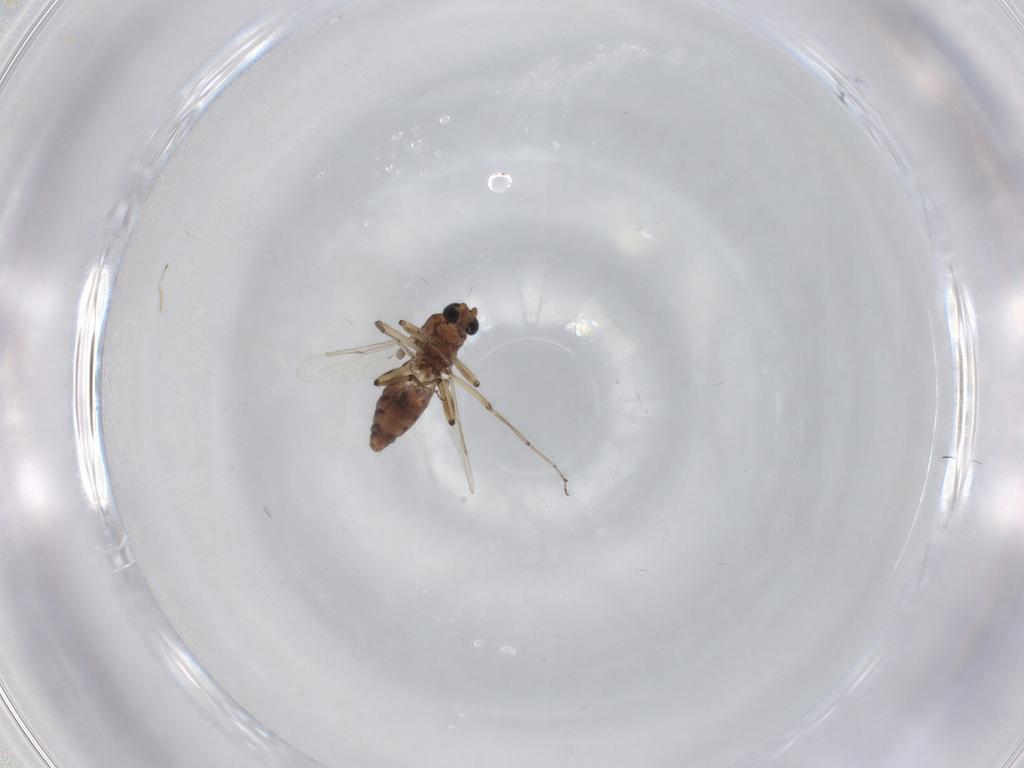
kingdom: Animalia
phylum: Arthropoda
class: Insecta
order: Diptera
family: Ceratopogonidae
